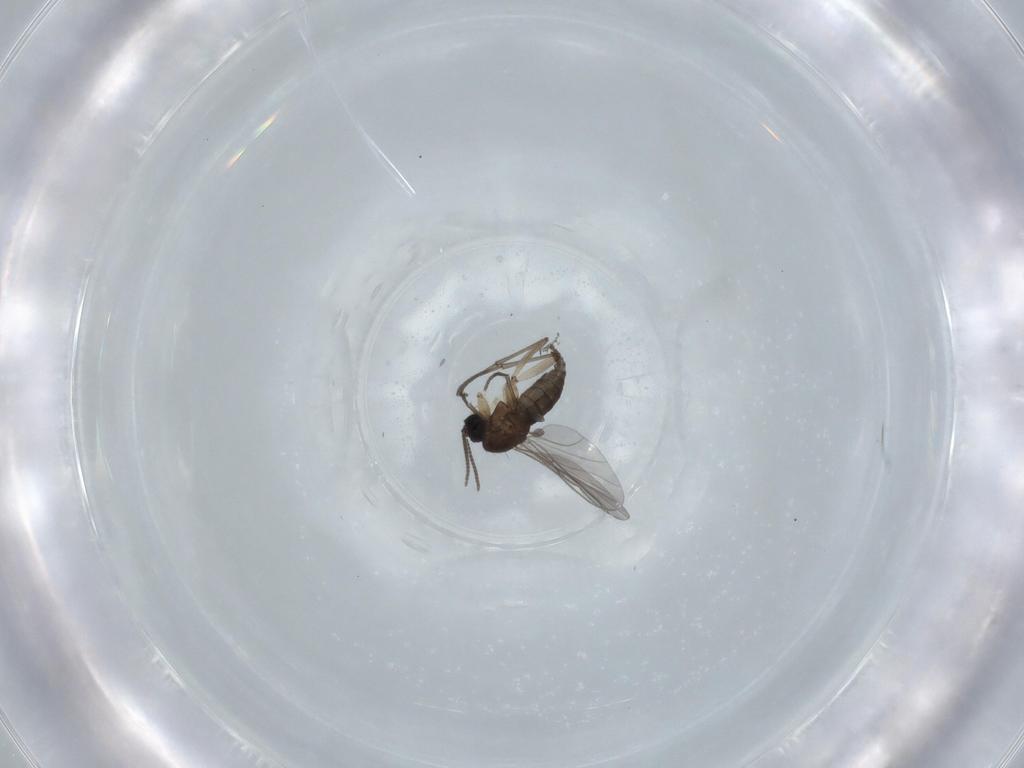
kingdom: Animalia
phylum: Arthropoda
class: Insecta
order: Diptera
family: Sciaridae
